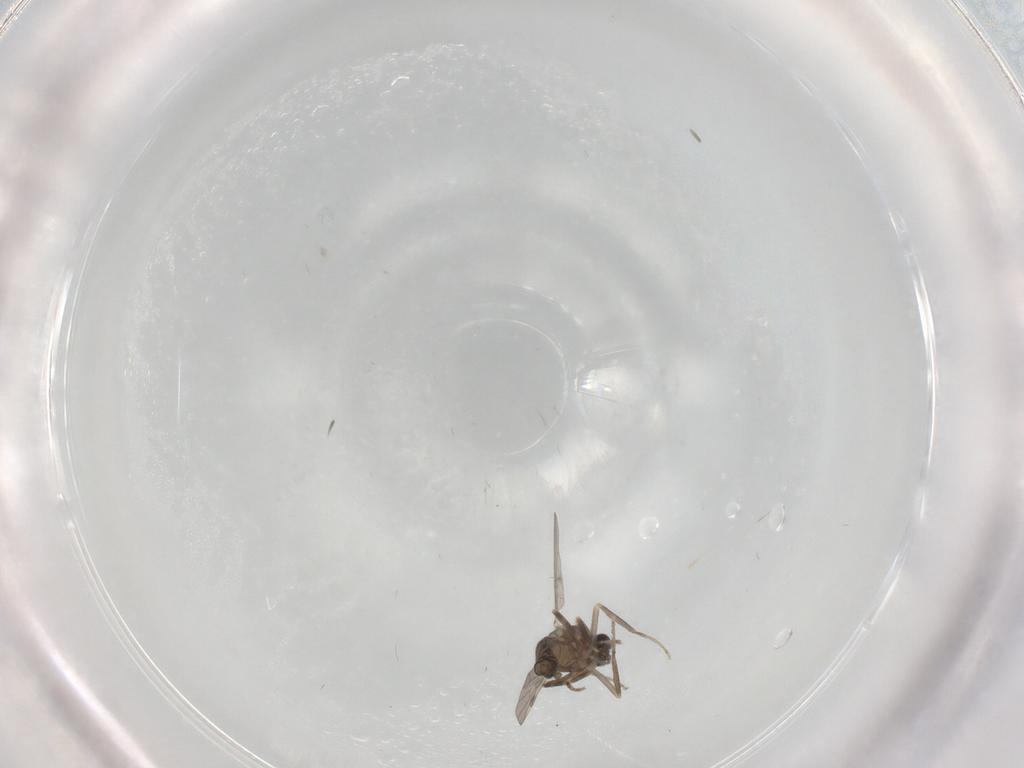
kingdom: Animalia
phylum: Arthropoda
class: Insecta
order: Diptera
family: Ceratopogonidae
